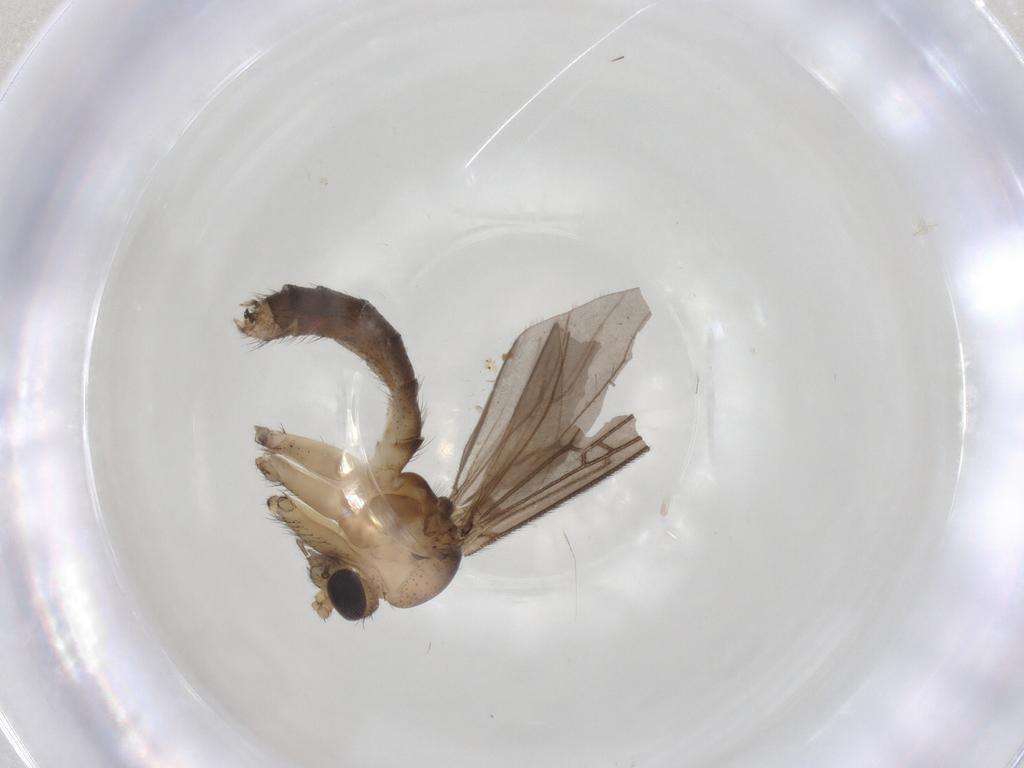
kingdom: Animalia
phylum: Arthropoda
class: Insecta
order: Diptera
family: Mycetophilidae
